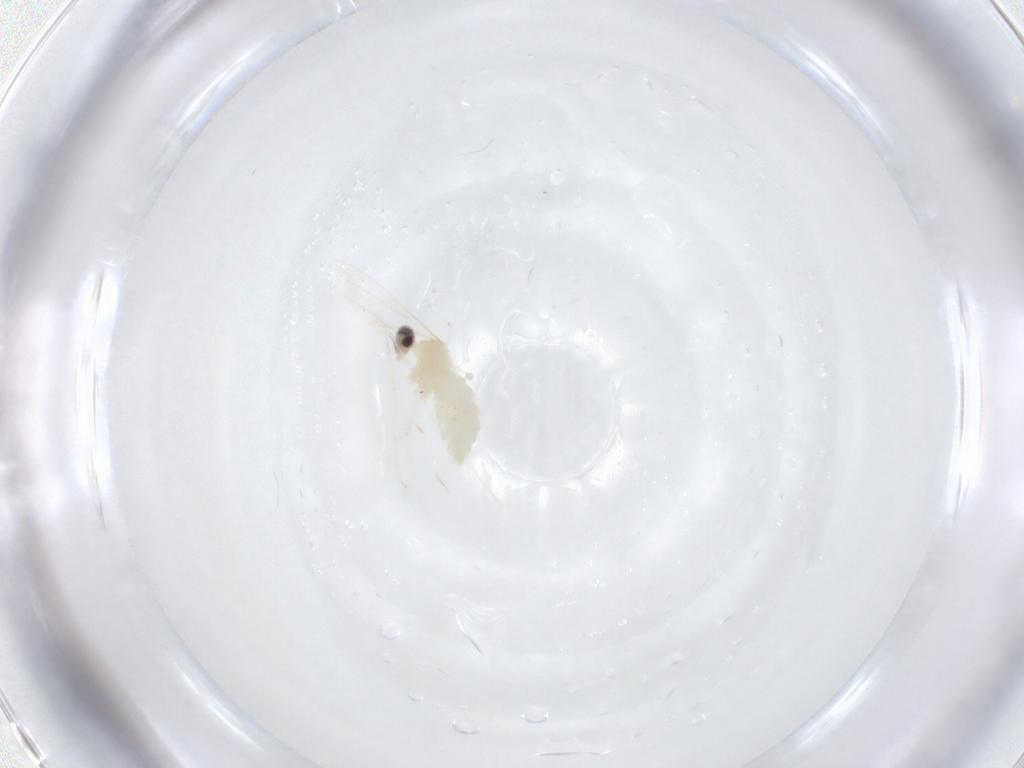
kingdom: Animalia
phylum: Arthropoda
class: Insecta
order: Diptera
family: Cecidomyiidae
